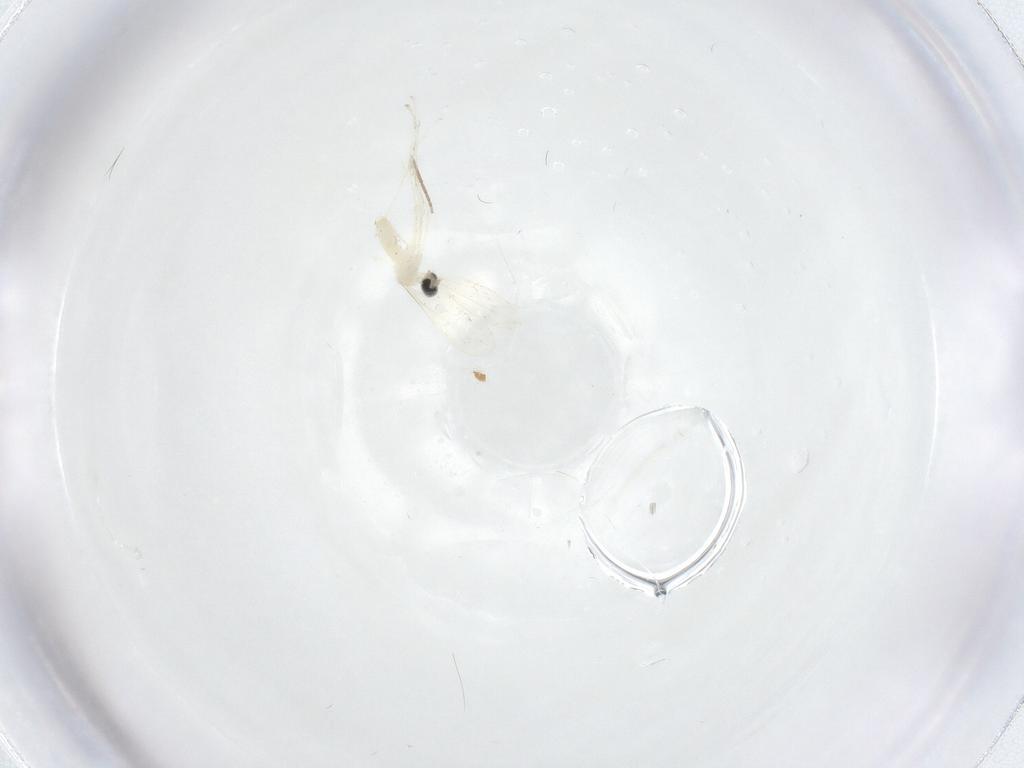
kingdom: Animalia
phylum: Arthropoda
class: Insecta
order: Diptera
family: Chironomidae
